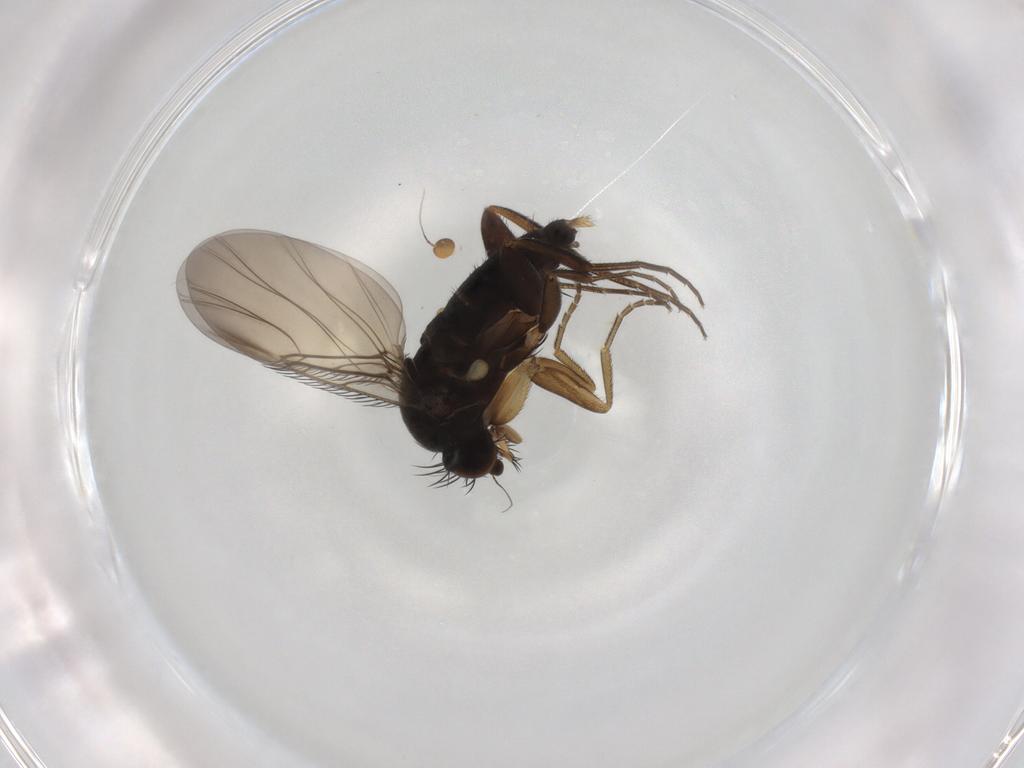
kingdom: Animalia
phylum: Arthropoda
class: Insecta
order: Diptera
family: Phoridae
